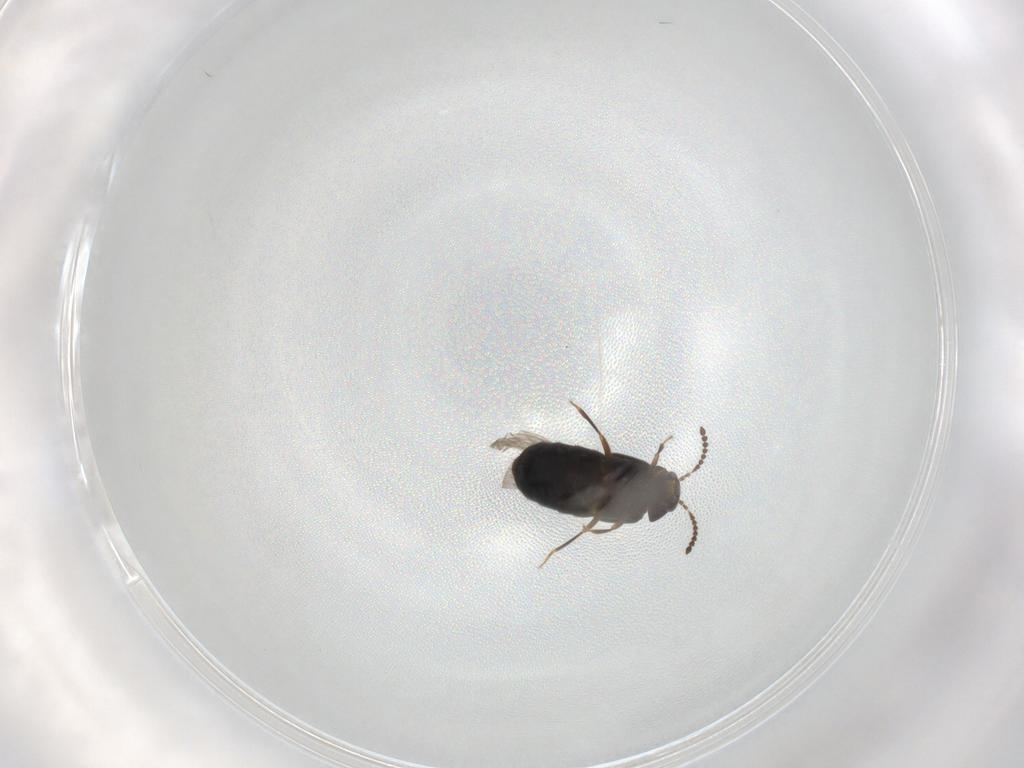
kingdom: Animalia
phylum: Arthropoda
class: Insecta
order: Coleoptera
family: Staphylinidae
